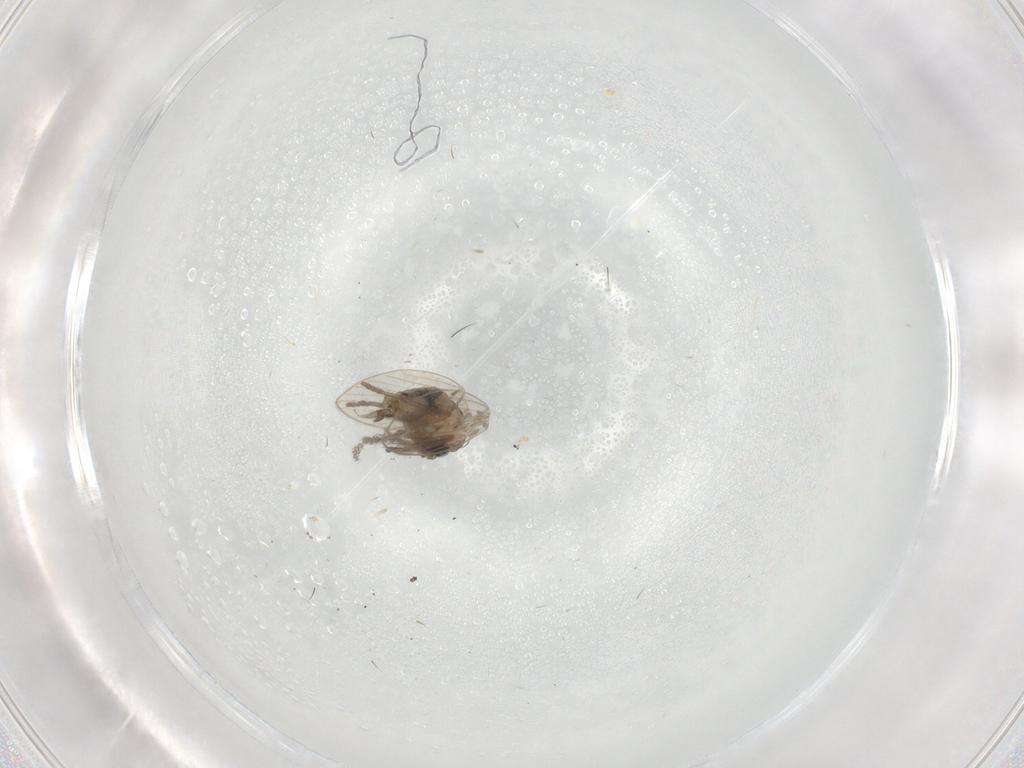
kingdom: Animalia
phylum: Arthropoda
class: Insecta
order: Diptera
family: Psychodidae
